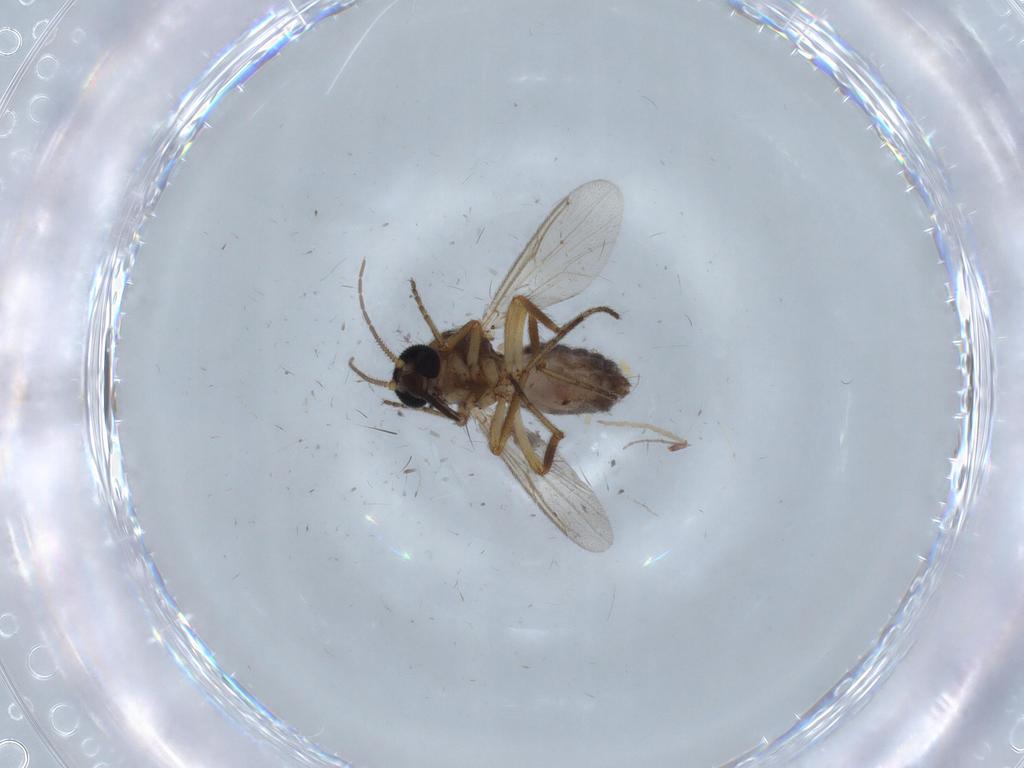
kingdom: Animalia
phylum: Arthropoda
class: Insecta
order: Diptera
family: Ceratopogonidae
